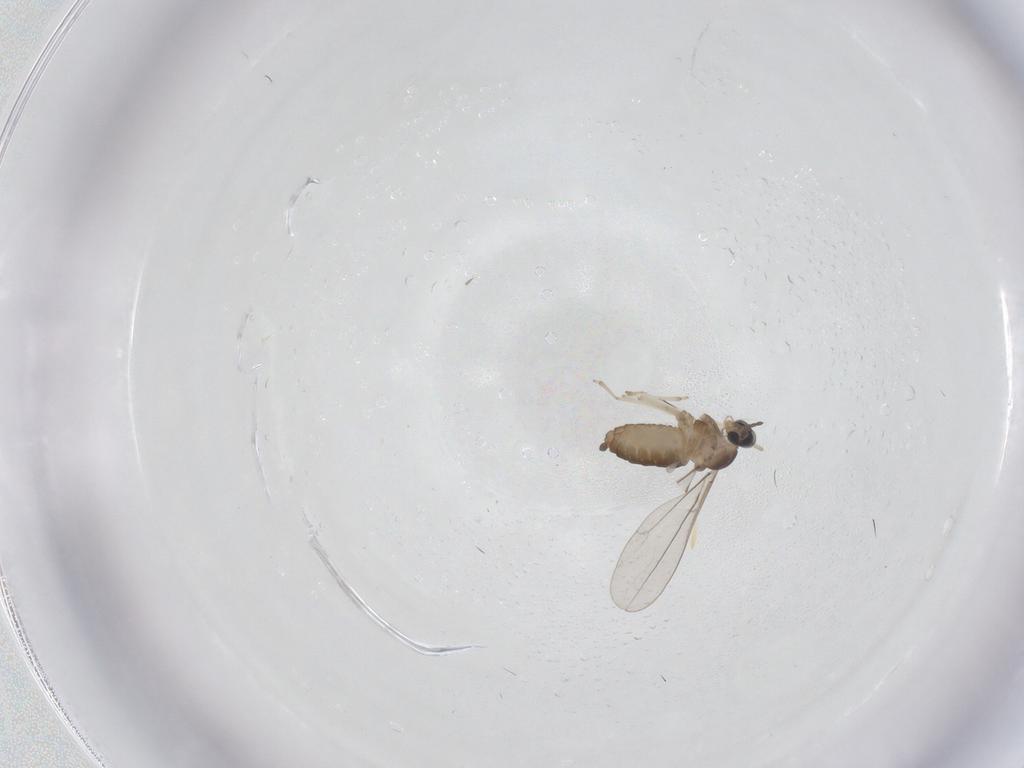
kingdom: Animalia
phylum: Arthropoda
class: Insecta
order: Diptera
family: Cecidomyiidae
